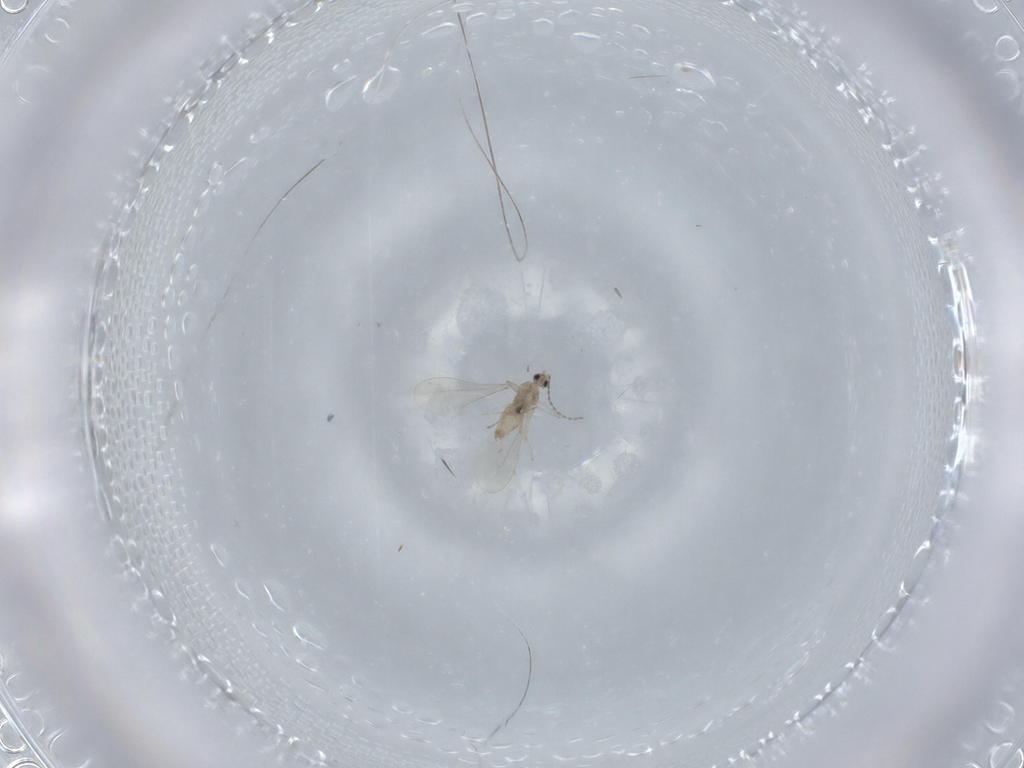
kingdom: Animalia
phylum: Arthropoda
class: Insecta
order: Diptera
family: Cecidomyiidae
